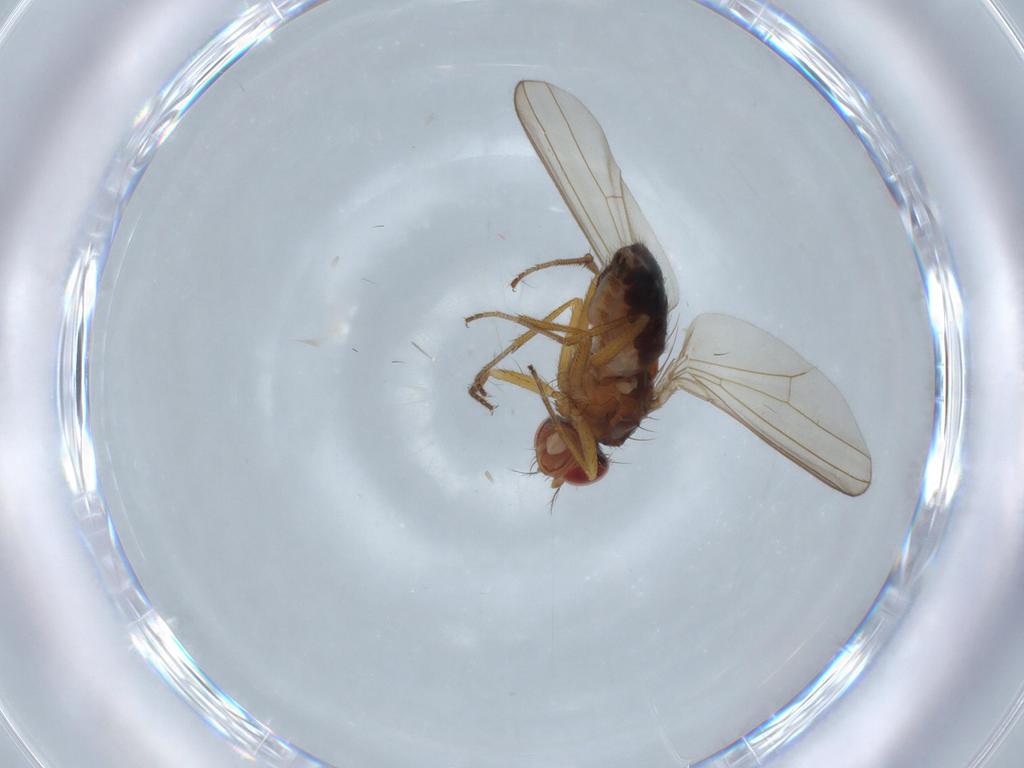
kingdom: Animalia
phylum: Arthropoda
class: Insecta
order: Diptera
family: Drosophilidae
